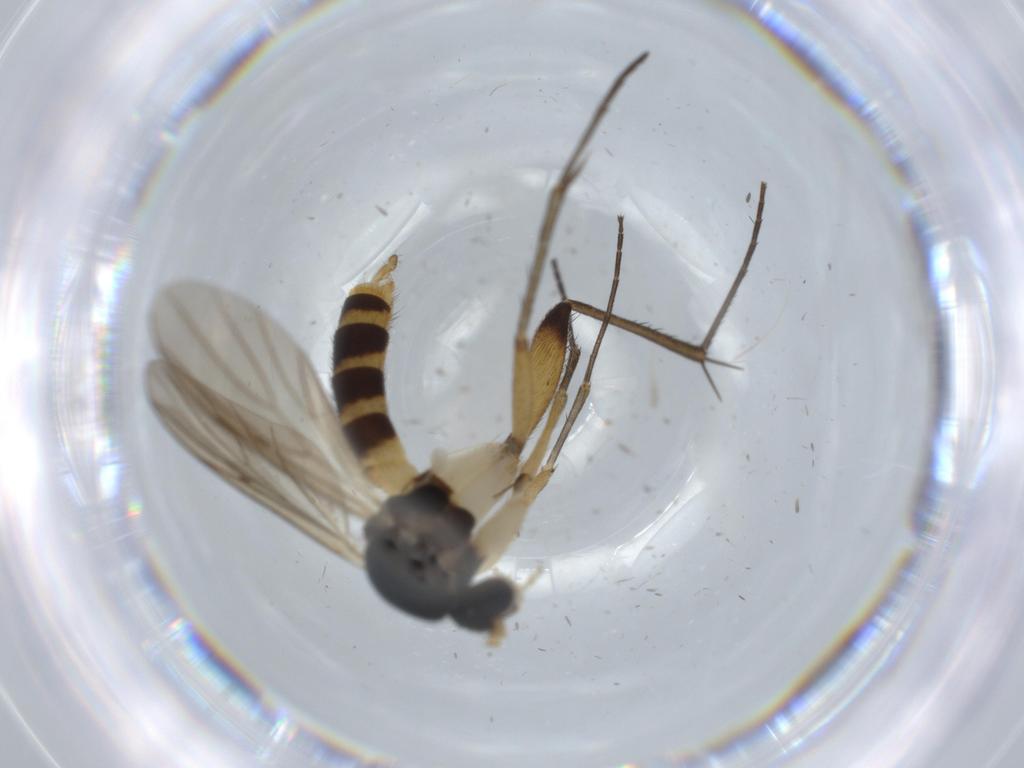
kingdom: Animalia
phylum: Arthropoda
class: Insecta
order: Diptera
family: Mycetophilidae
